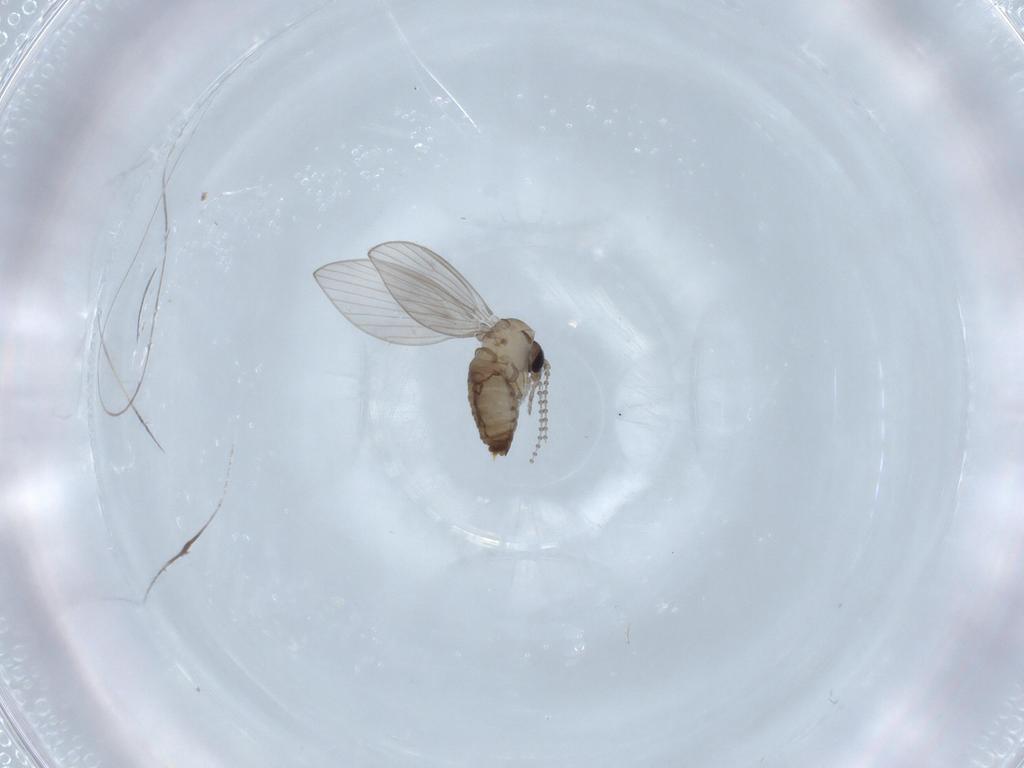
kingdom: Animalia
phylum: Arthropoda
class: Insecta
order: Diptera
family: Psychodidae
